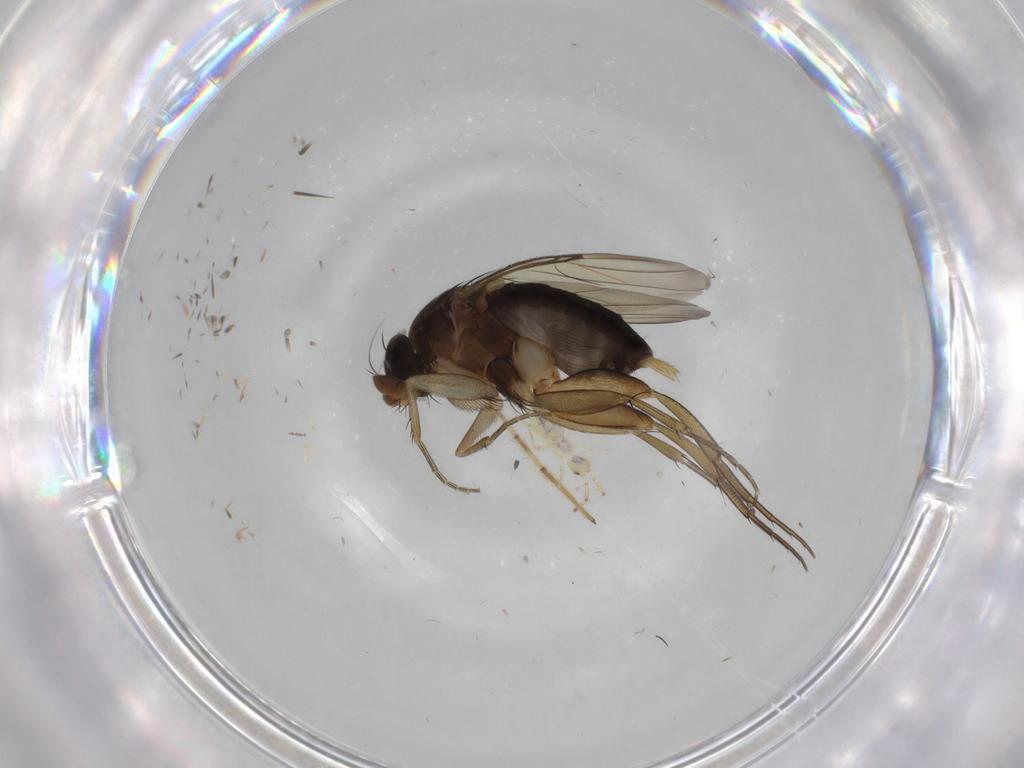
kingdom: Animalia
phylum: Arthropoda
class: Insecta
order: Diptera
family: Phoridae
